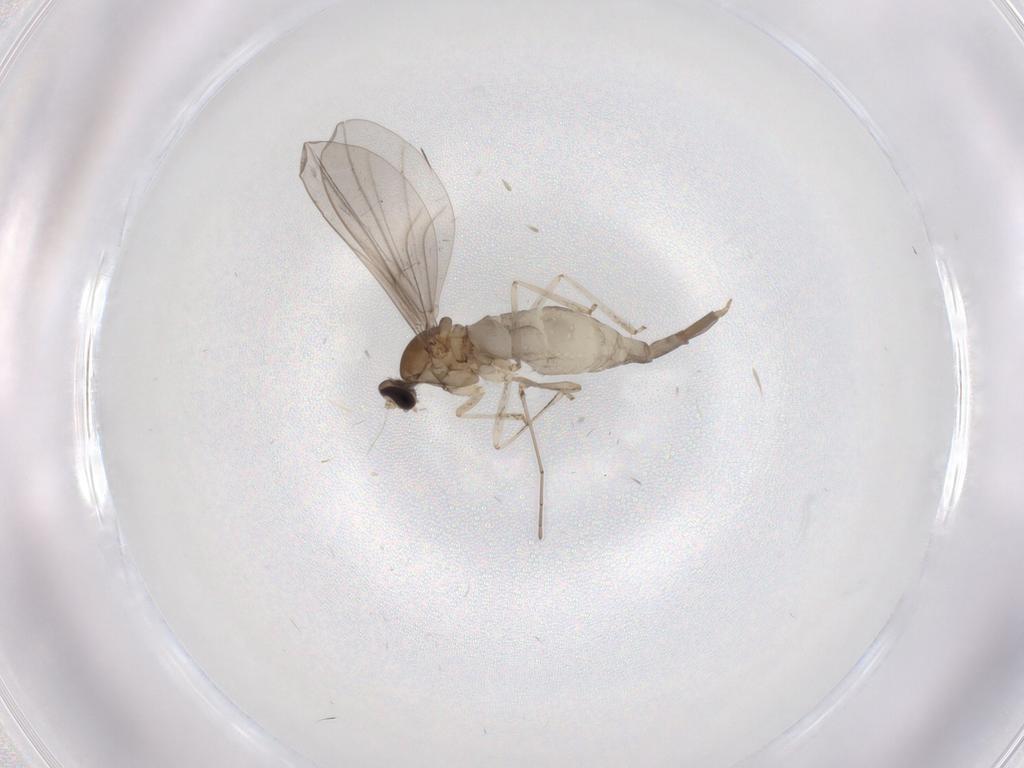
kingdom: Animalia
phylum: Arthropoda
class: Insecta
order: Diptera
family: Cecidomyiidae
